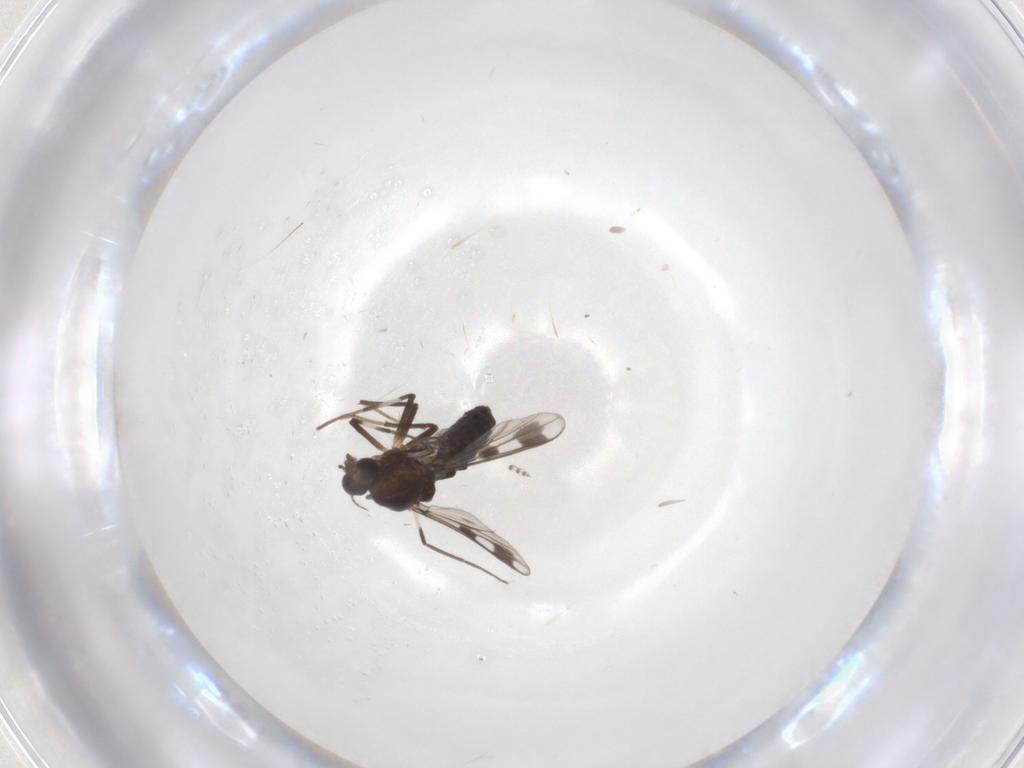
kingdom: Animalia
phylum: Arthropoda
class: Insecta
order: Diptera
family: Chironomidae
